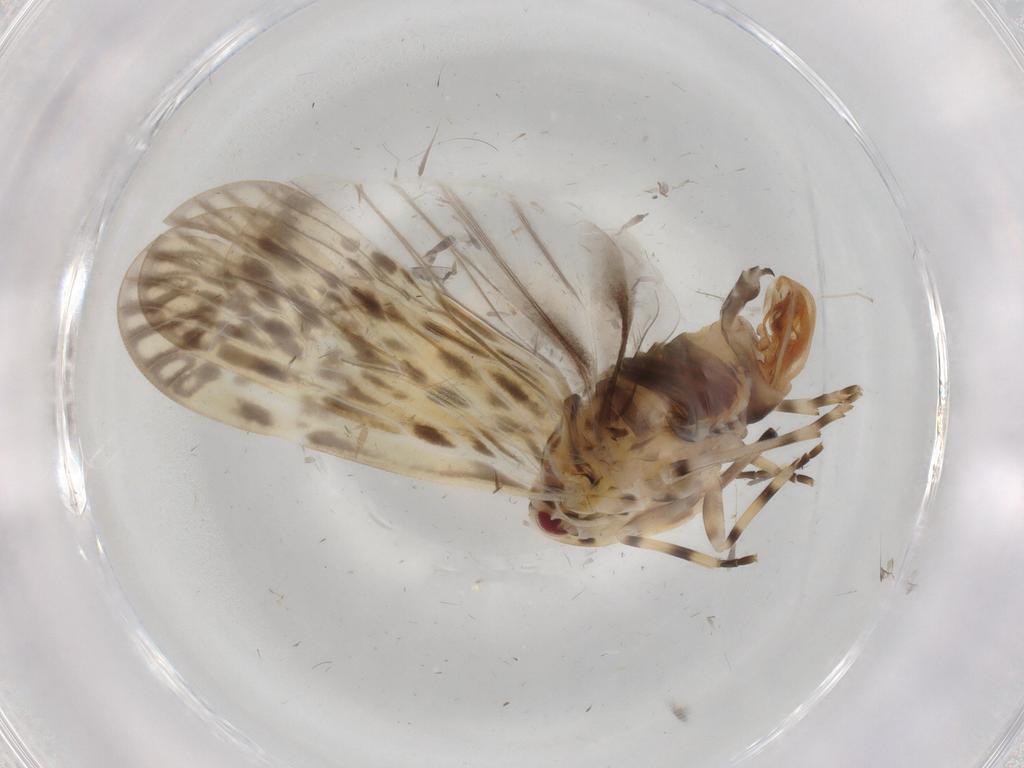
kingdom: Animalia
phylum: Arthropoda
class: Insecta
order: Hemiptera
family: Derbidae
